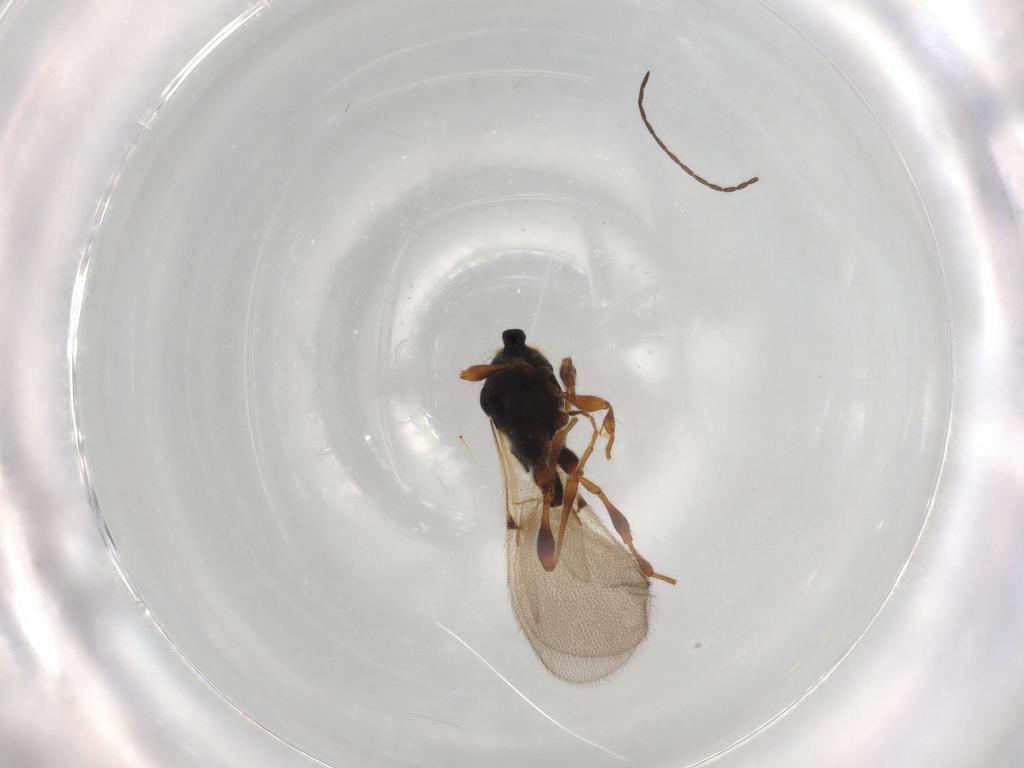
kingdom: Animalia
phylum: Arthropoda
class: Insecta
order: Hymenoptera
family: Diapriidae
